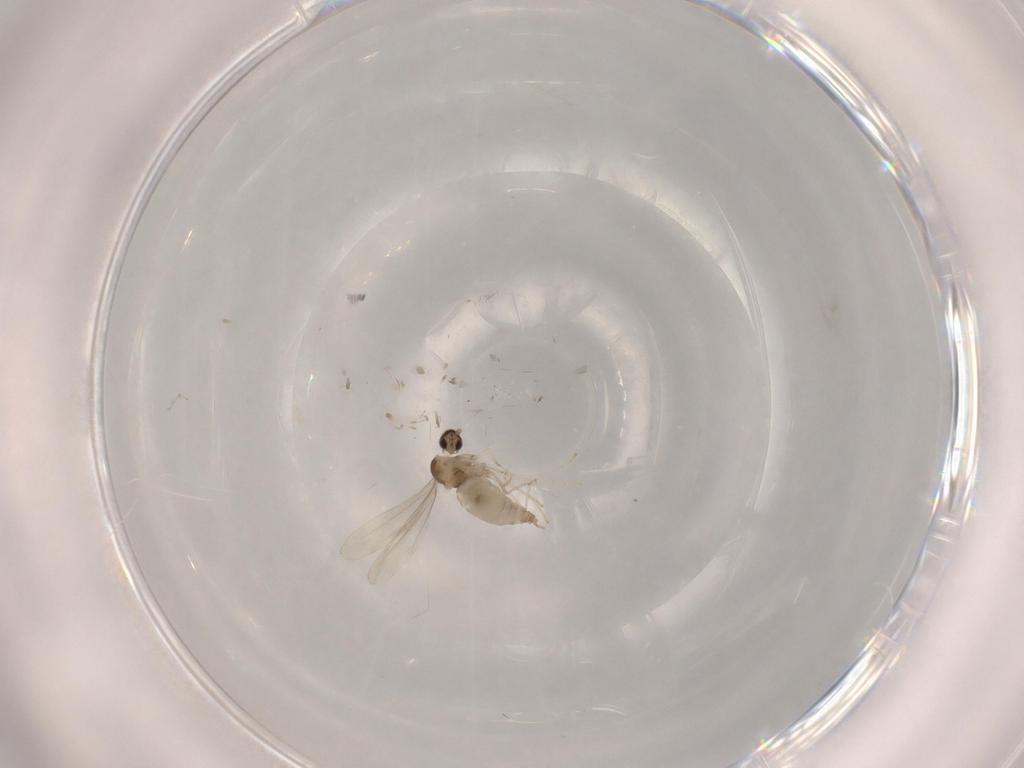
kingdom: Animalia
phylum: Arthropoda
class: Insecta
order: Diptera
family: Cecidomyiidae
